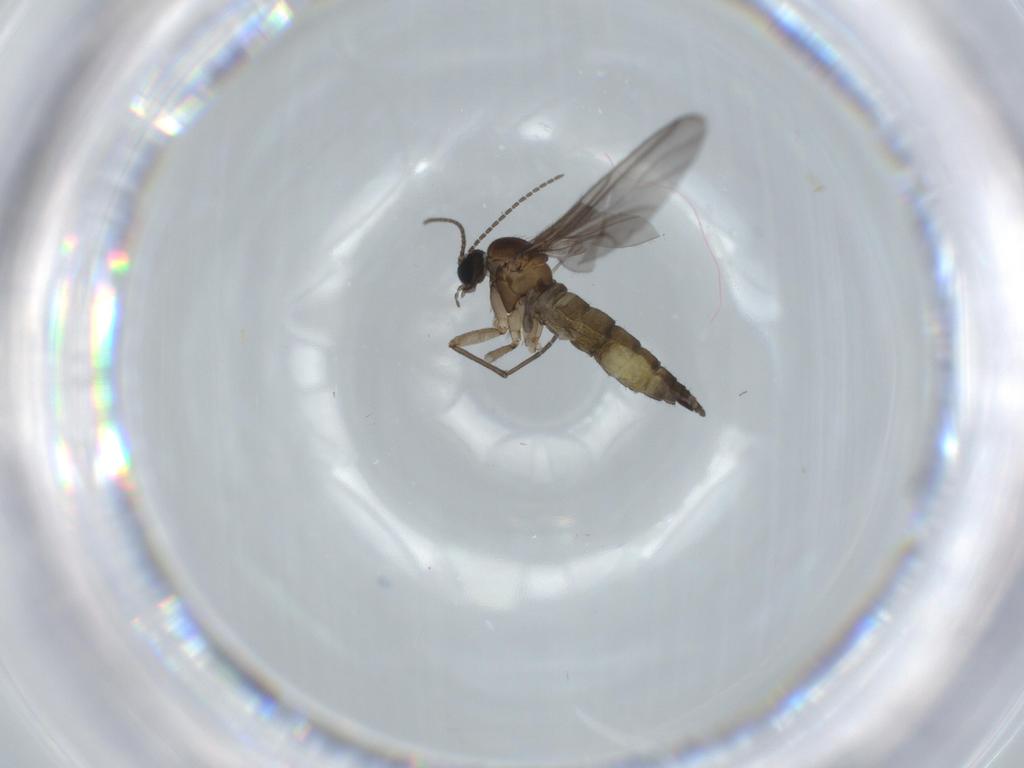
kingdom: Animalia
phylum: Arthropoda
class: Insecta
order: Diptera
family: Sciaridae
